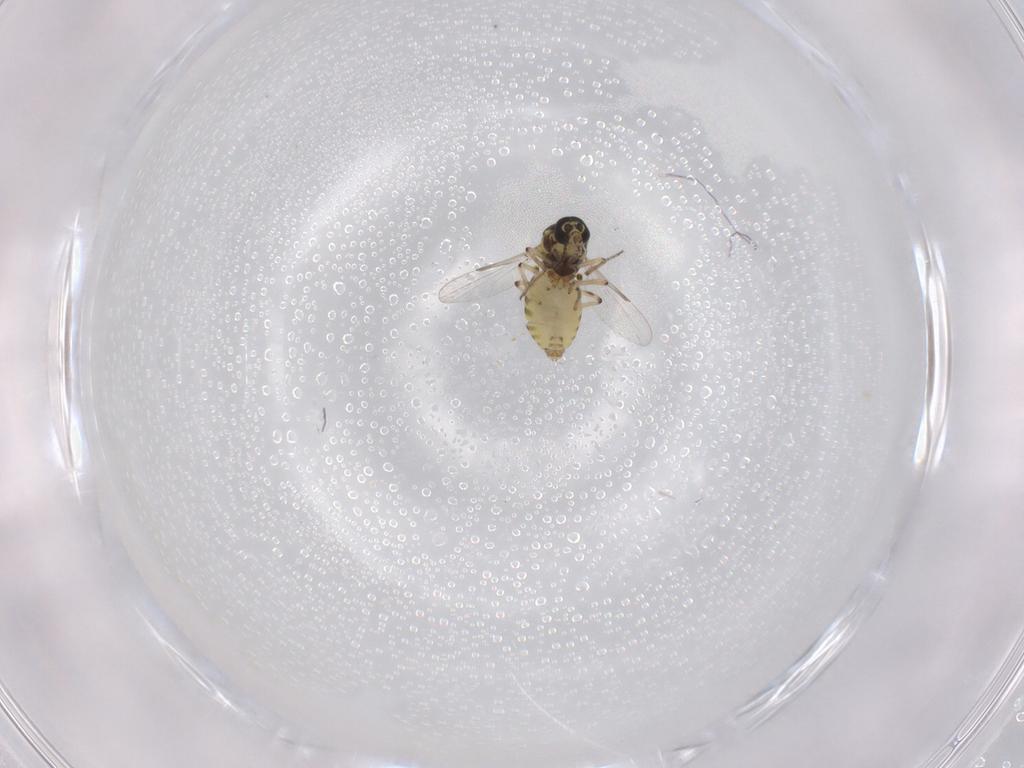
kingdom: Animalia
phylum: Arthropoda
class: Insecta
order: Diptera
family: Ceratopogonidae
